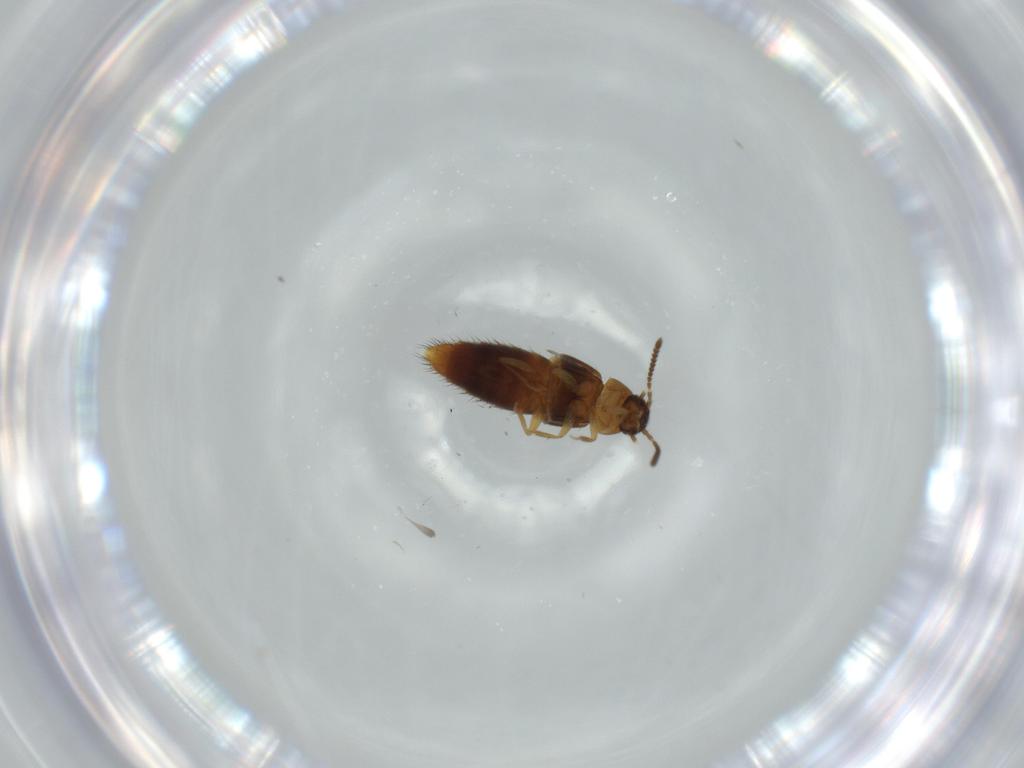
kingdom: Animalia
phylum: Arthropoda
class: Insecta
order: Coleoptera
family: Staphylinidae
